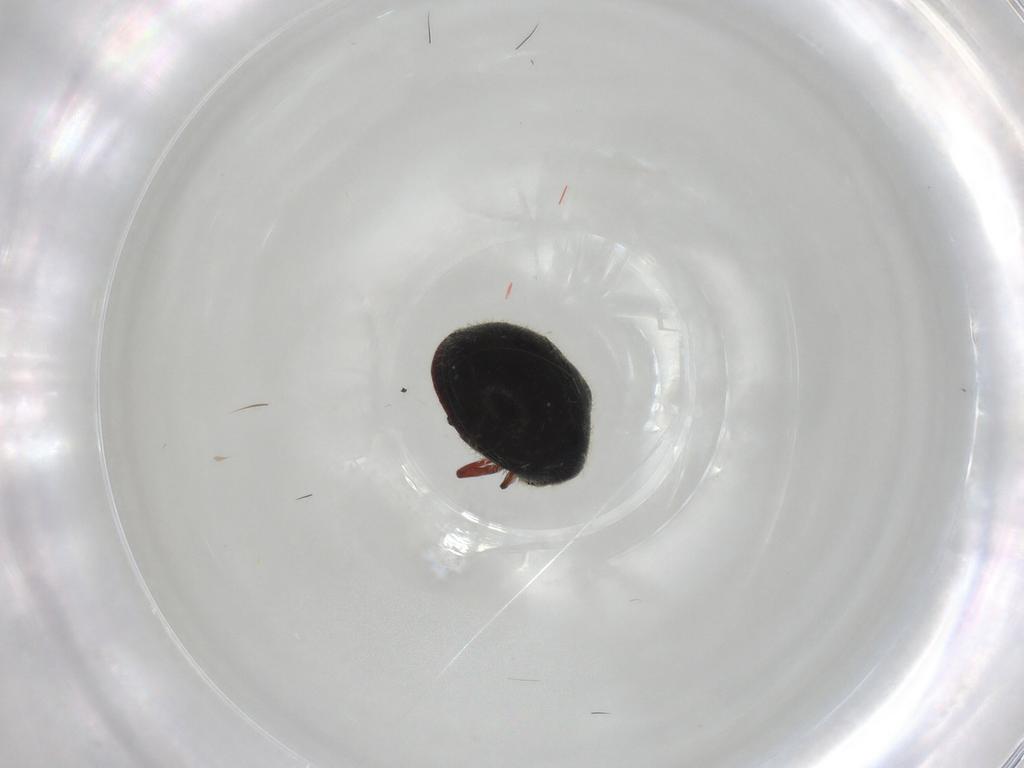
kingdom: Animalia
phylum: Arthropoda
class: Insecta
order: Coleoptera
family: Ptinidae
